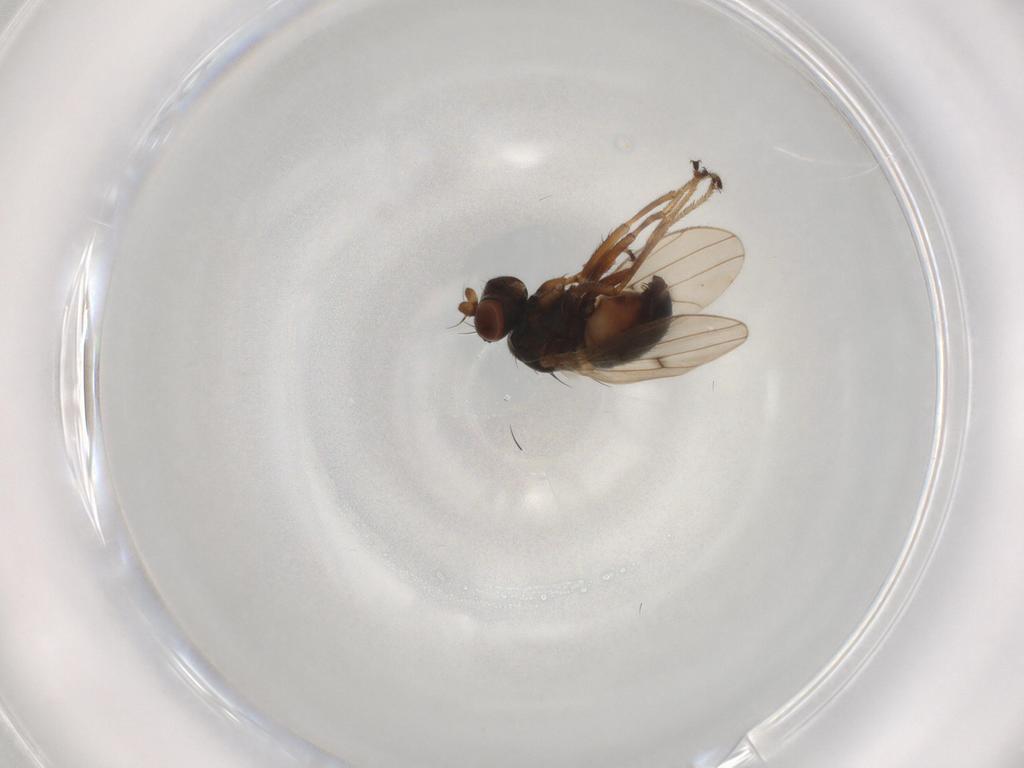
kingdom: Animalia
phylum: Arthropoda
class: Insecta
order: Diptera
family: Ephydridae
